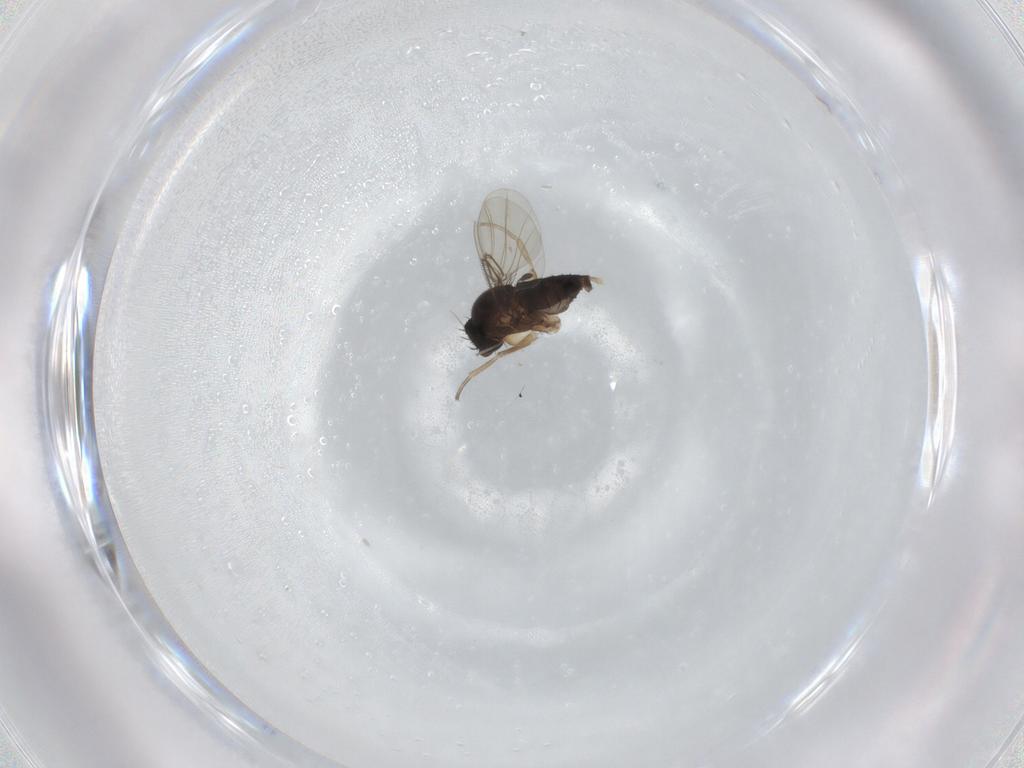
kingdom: Animalia
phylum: Arthropoda
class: Insecta
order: Diptera
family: Phoridae
